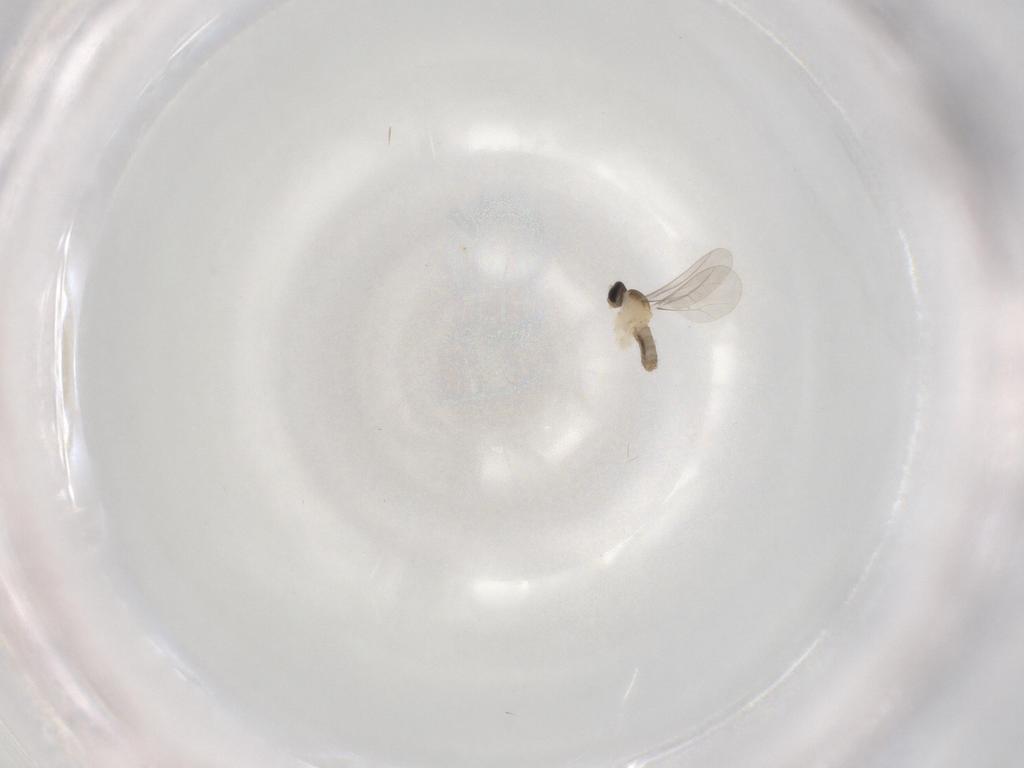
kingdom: Animalia
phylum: Arthropoda
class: Insecta
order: Diptera
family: Cecidomyiidae
